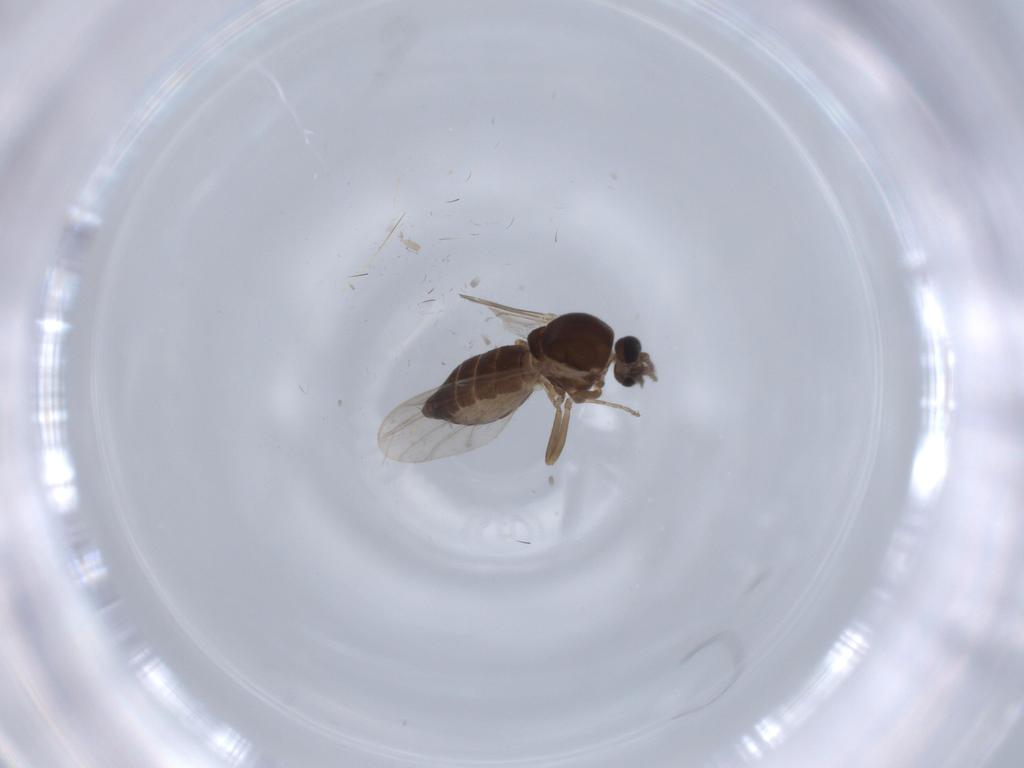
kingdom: Animalia
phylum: Arthropoda
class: Insecta
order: Diptera
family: Ceratopogonidae
